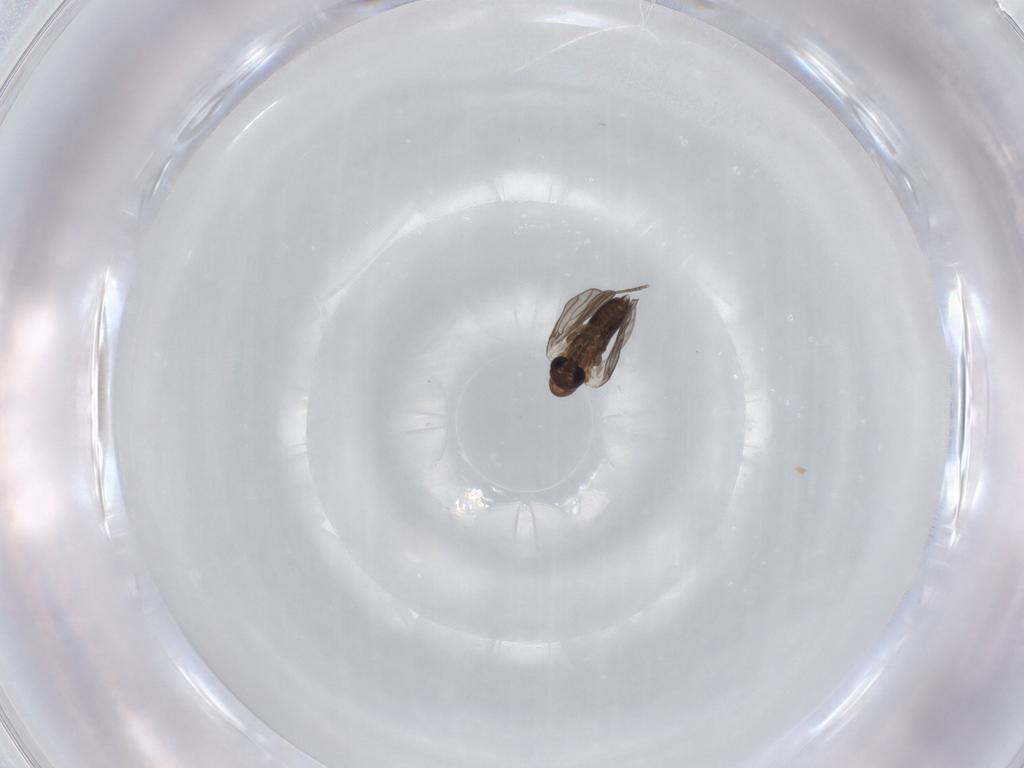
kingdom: Animalia
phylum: Arthropoda
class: Insecta
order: Diptera
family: Psychodidae
